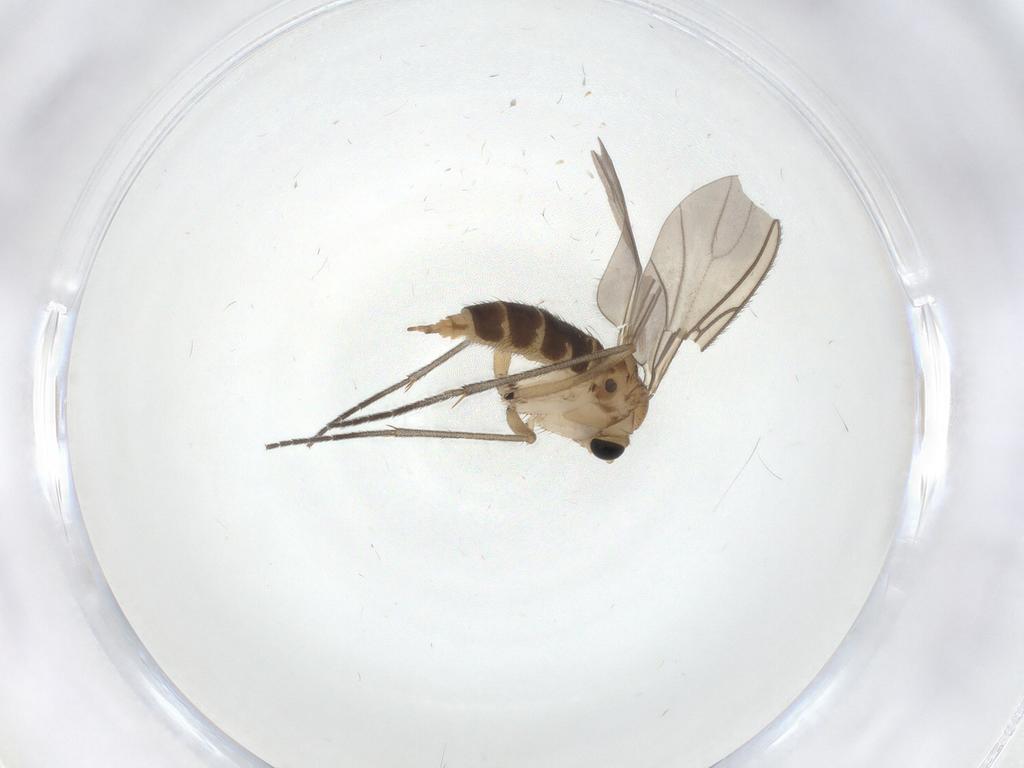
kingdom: Animalia
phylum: Arthropoda
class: Insecta
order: Diptera
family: Sciaridae
